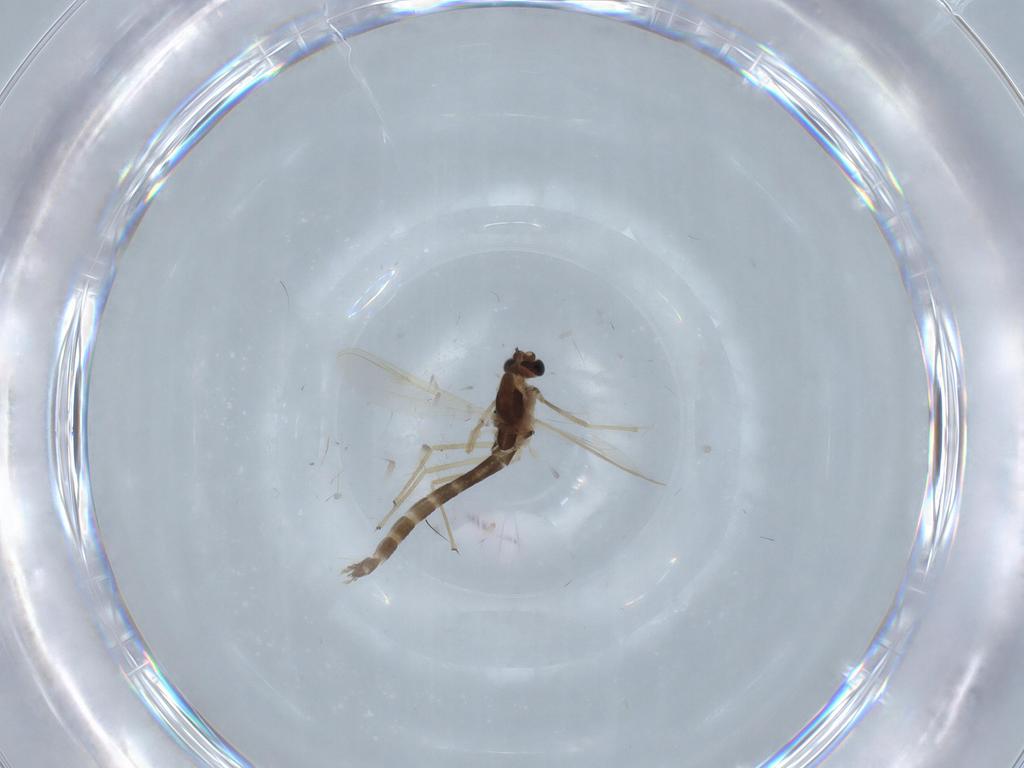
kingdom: Animalia
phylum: Arthropoda
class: Insecta
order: Diptera
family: Chironomidae
